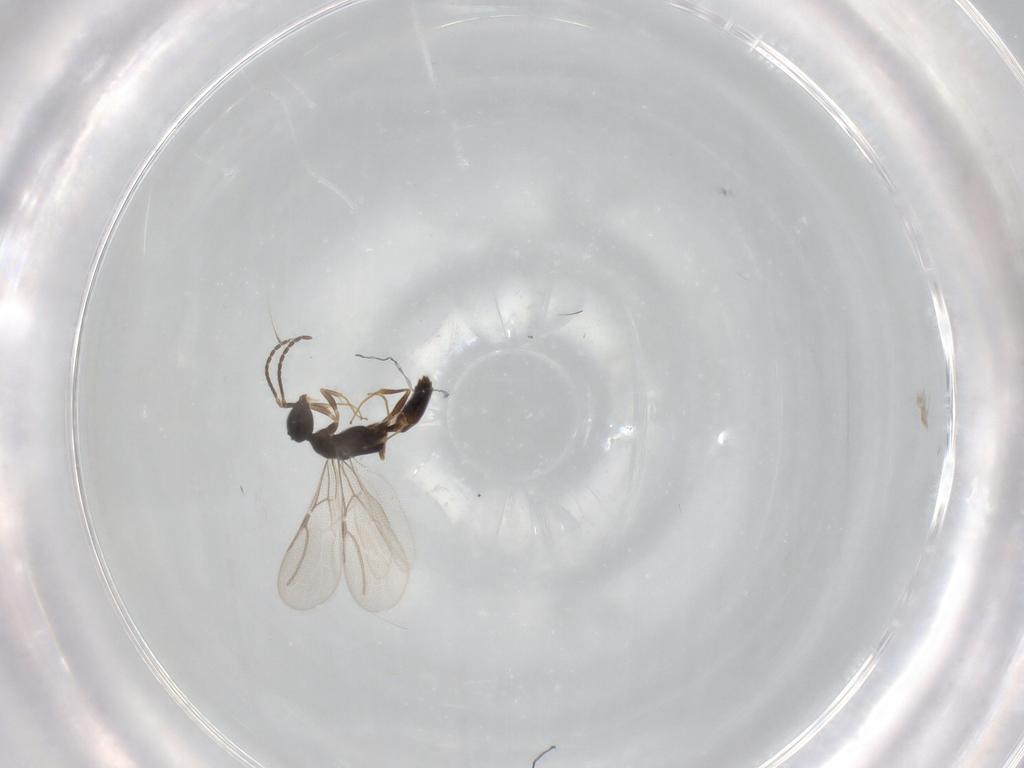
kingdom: Animalia
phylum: Arthropoda
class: Insecta
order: Hymenoptera
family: Bethylidae
